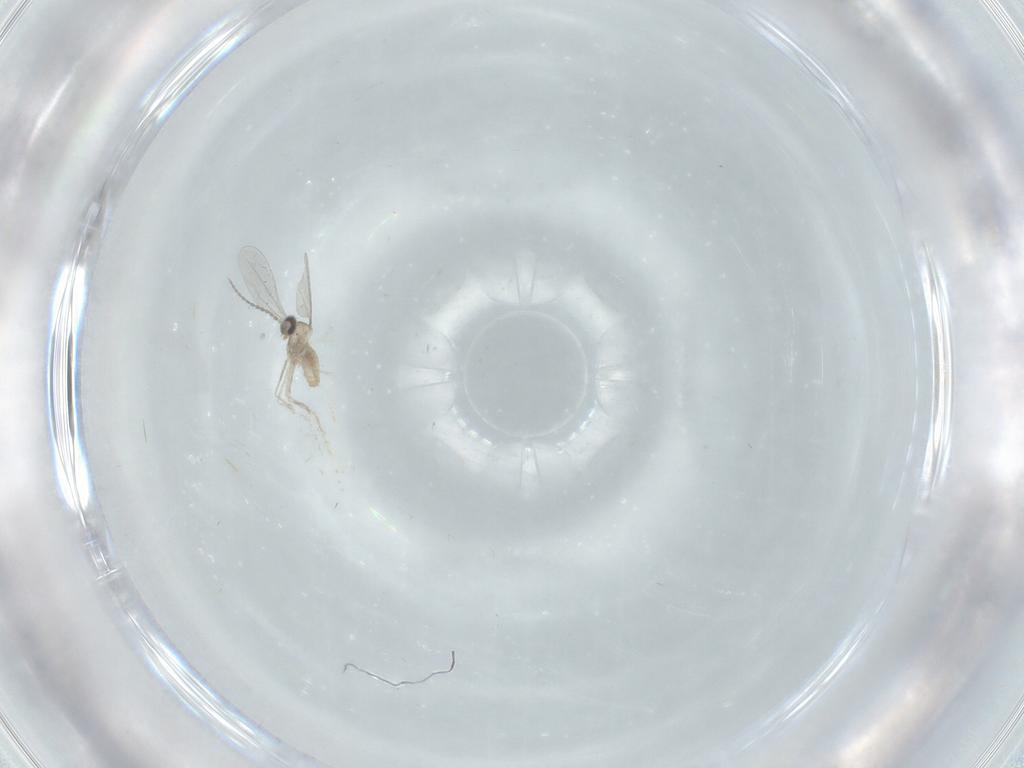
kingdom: Animalia
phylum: Arthropoda
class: Insecta
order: Diptera
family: Cecidomyiidae
